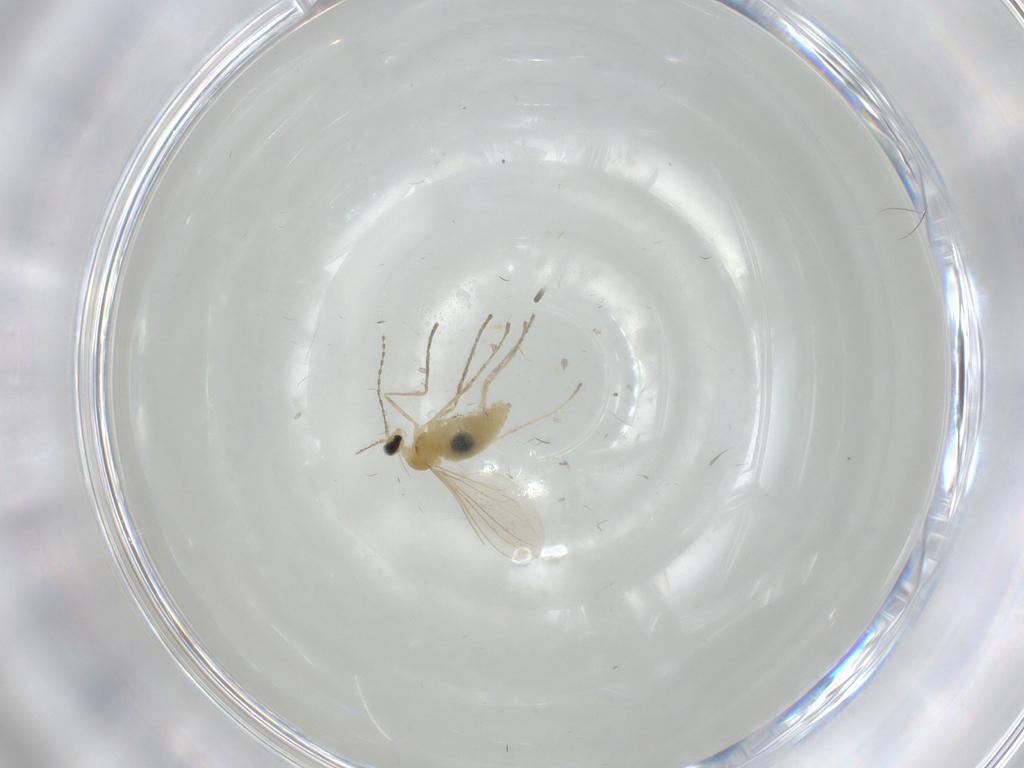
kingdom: Animalia
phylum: Arthropoda
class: Insecta
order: Diptera
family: Cecidomyiidae
